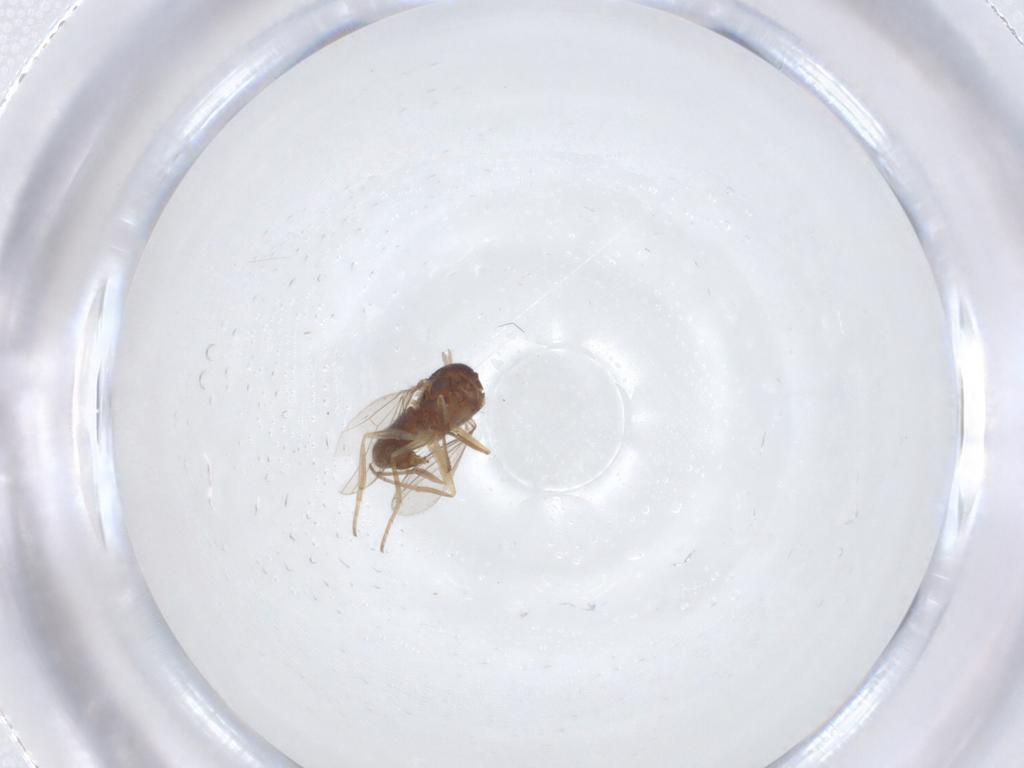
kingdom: Animalia
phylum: Arthropoda
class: Insecta
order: Diptera
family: Dolichopodidae
